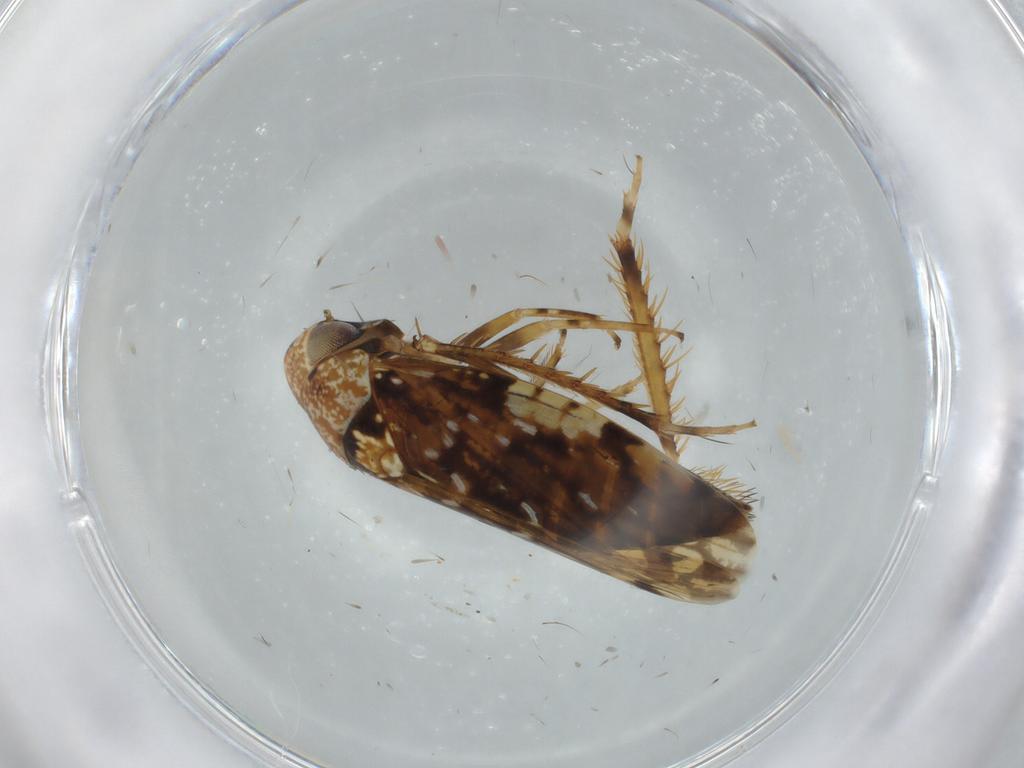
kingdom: Animalia
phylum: Arthropoda
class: Insecta
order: Hemiptera
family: Cicadellidae
